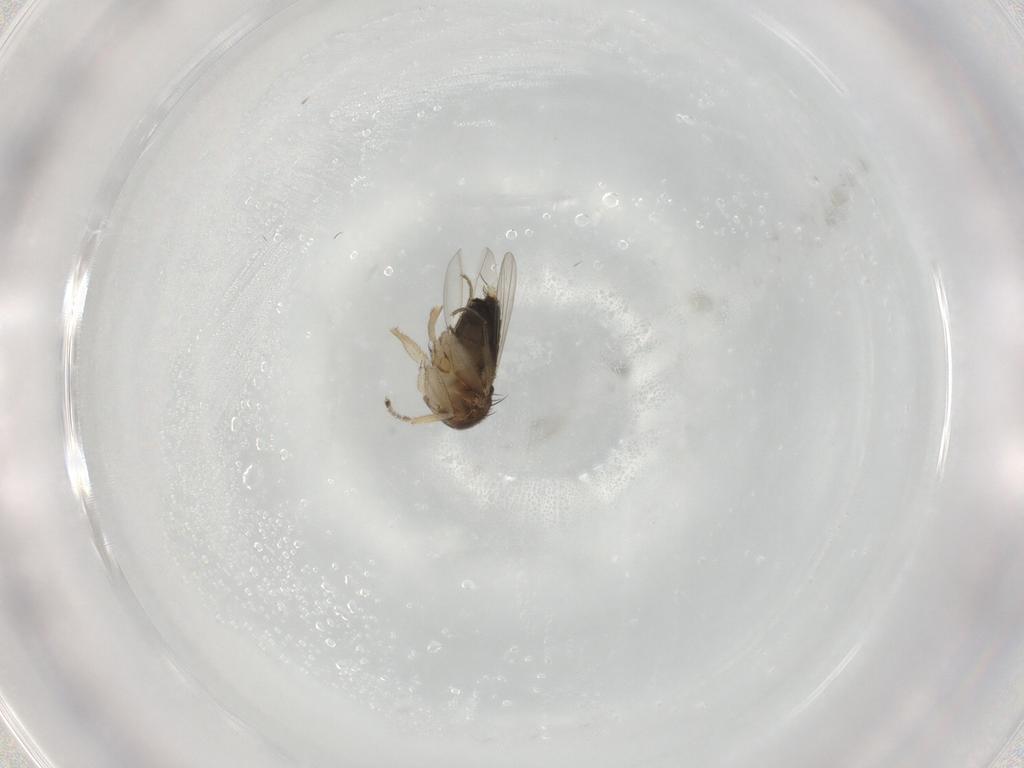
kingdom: Animalia
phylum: Arthropoda
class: Insecta
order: Diptera
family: Phoridae
